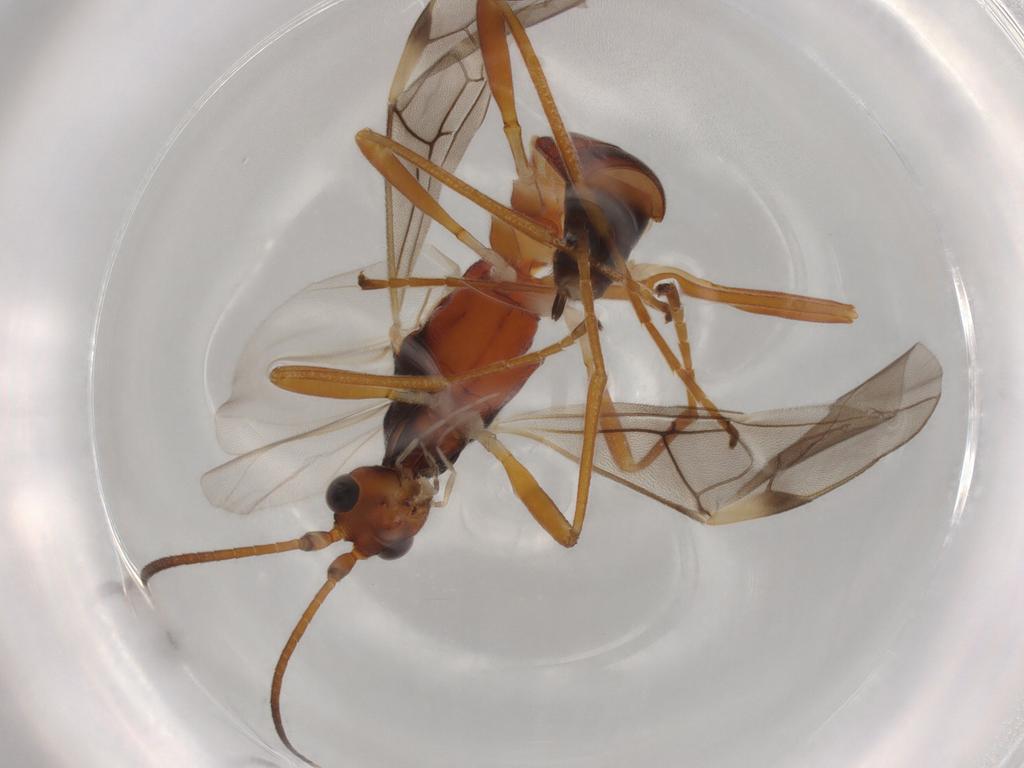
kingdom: Animalia
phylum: Arthropoda
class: Insecta
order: Hymenoptera
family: Braconidae
